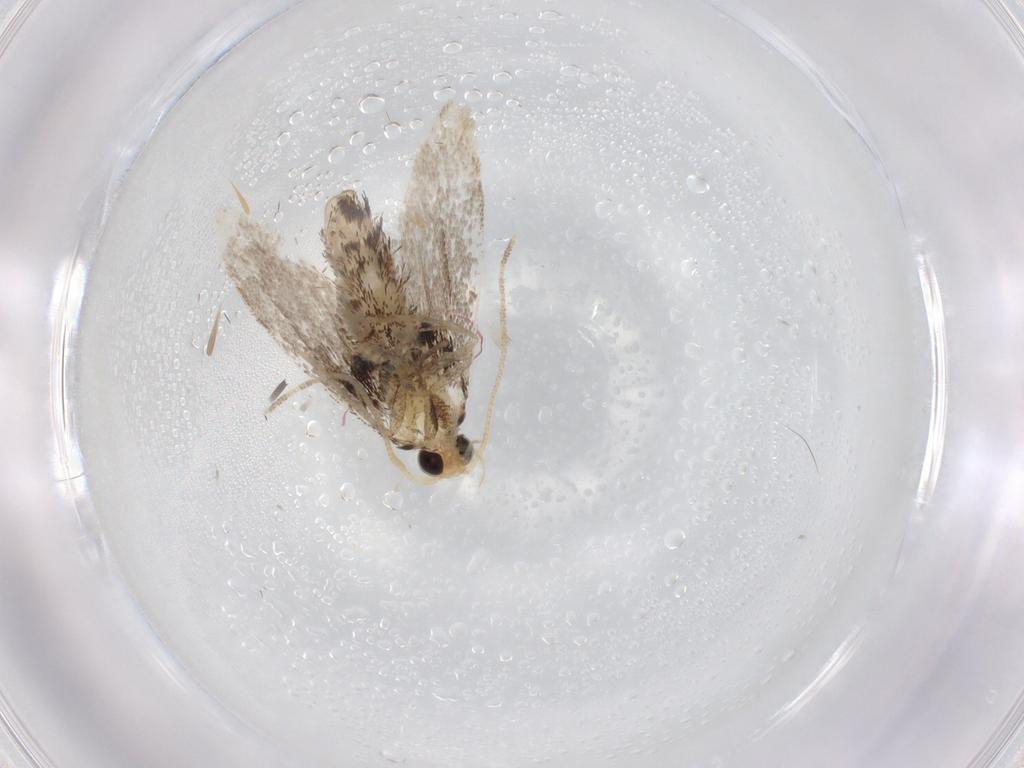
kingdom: Animalia
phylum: Arthropoda
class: Insecta
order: Lepidoptera
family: Dryadaulidae
